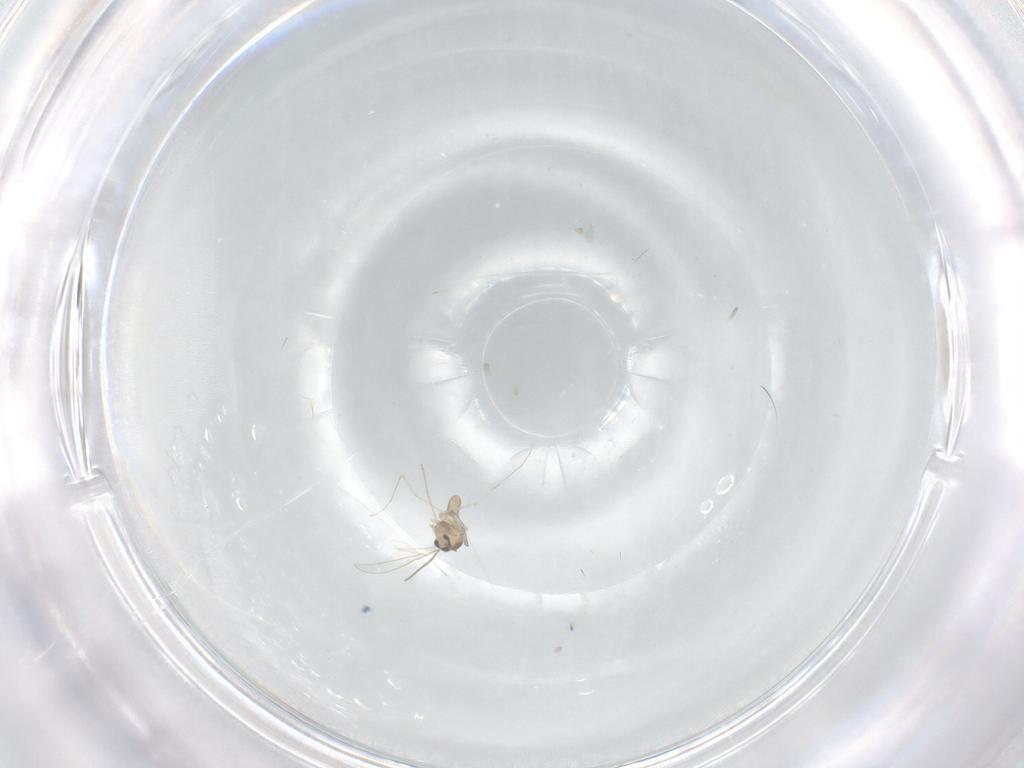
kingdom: Animalia
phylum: Arthropoda
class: Insecta
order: Diptera
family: Cecidomyiidae
